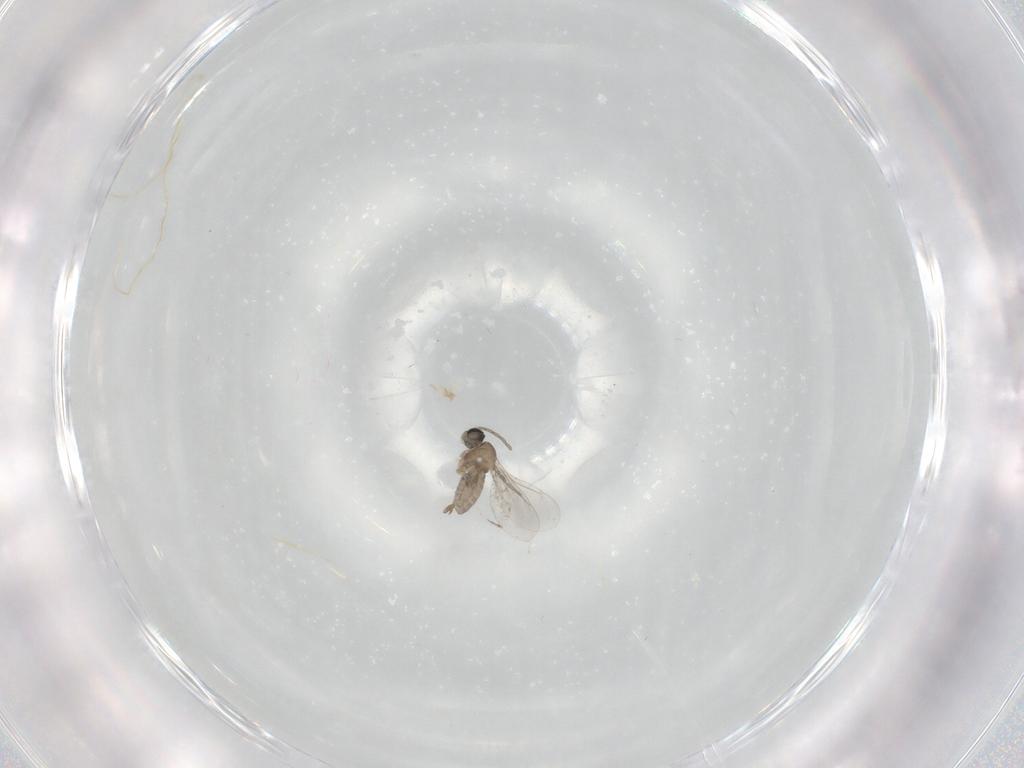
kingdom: Animalia
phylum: Arthropoda
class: Insecta
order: Diptera
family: Cecidomyiidae
